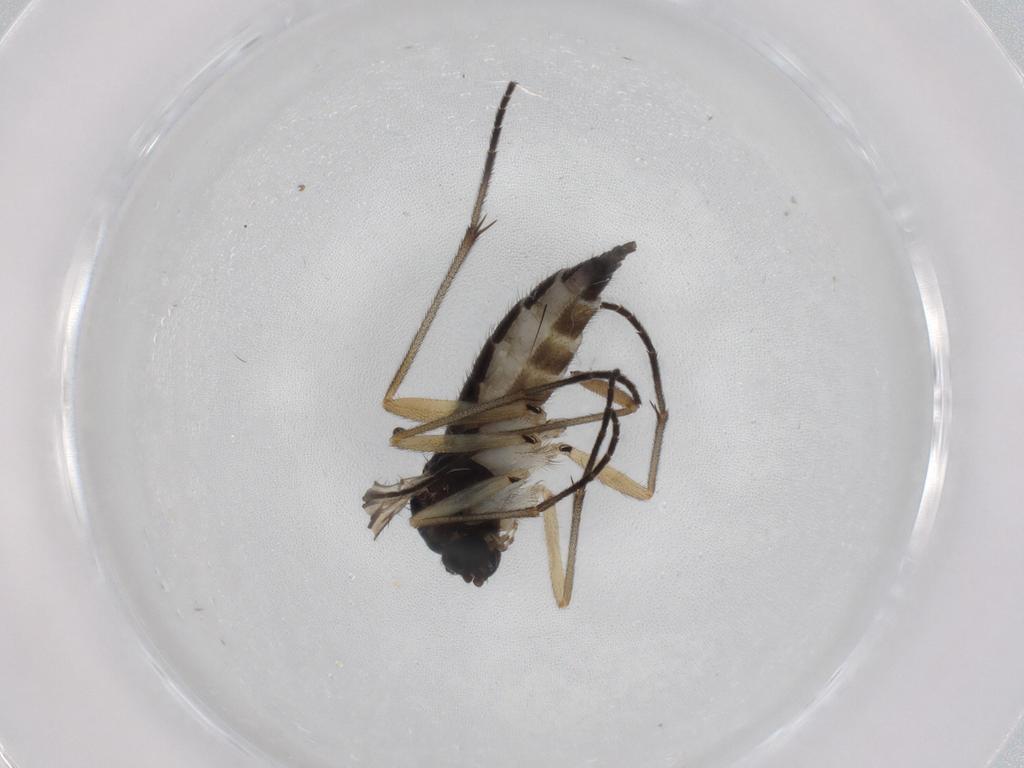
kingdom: Animalia
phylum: Arthropoda
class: Insecta
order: Diptera
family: Sciaridae
